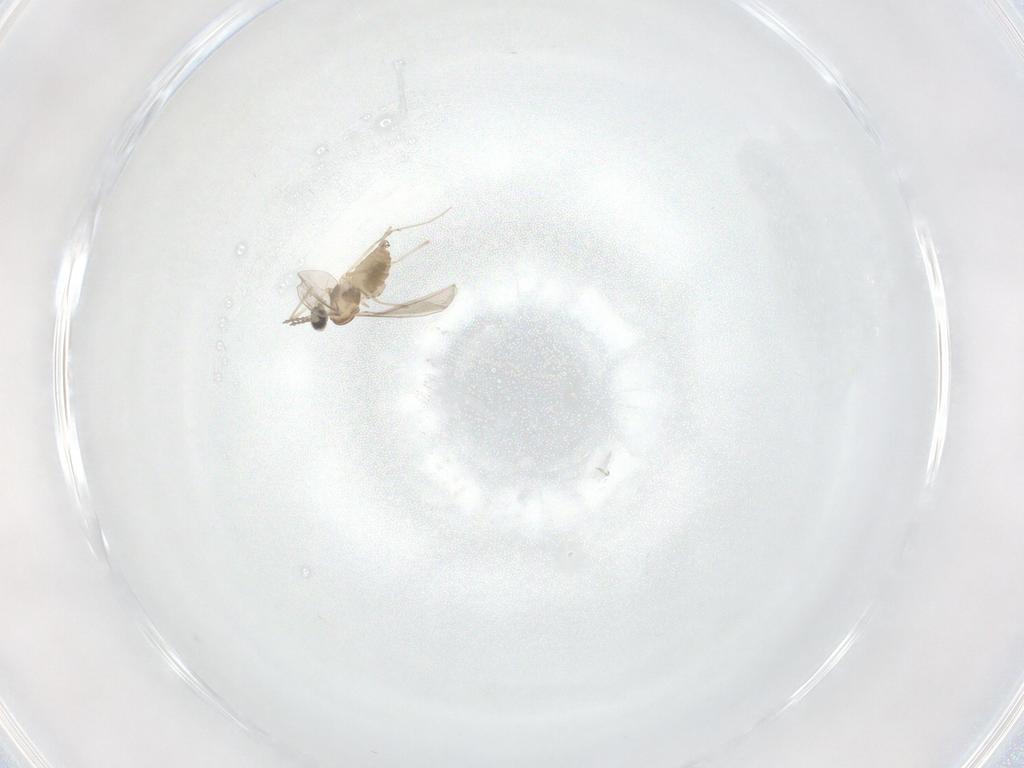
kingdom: Animalia
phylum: Arthropoda
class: Insecta
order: Diptera
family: Cecidomyiidae
